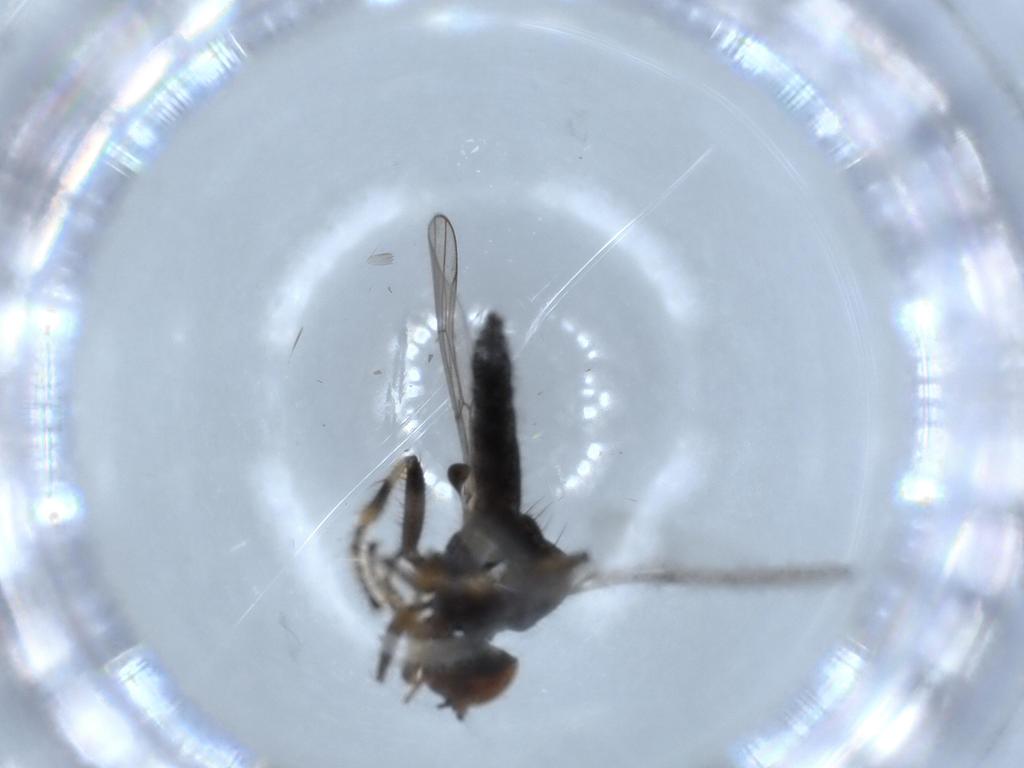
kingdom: Animalia
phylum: Arthropoda
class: Insecta
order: Diptera
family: Hybotidae
